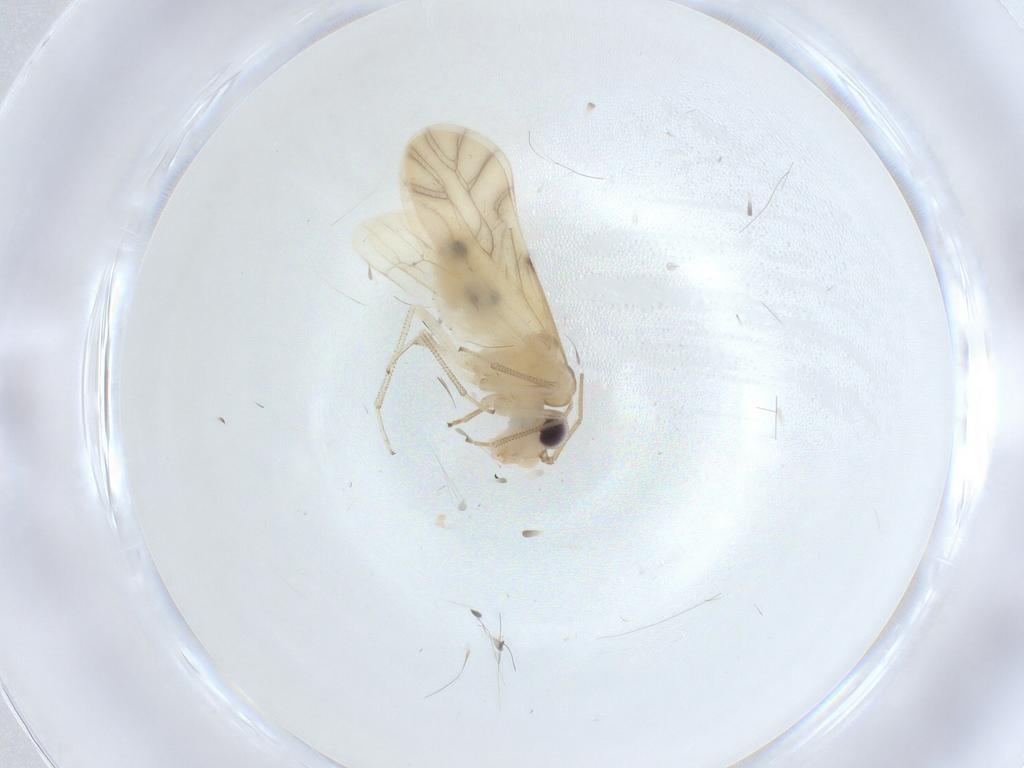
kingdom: Animalia
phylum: Arthropoda
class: Insecta
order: Psocodea
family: Caeciliusidae
